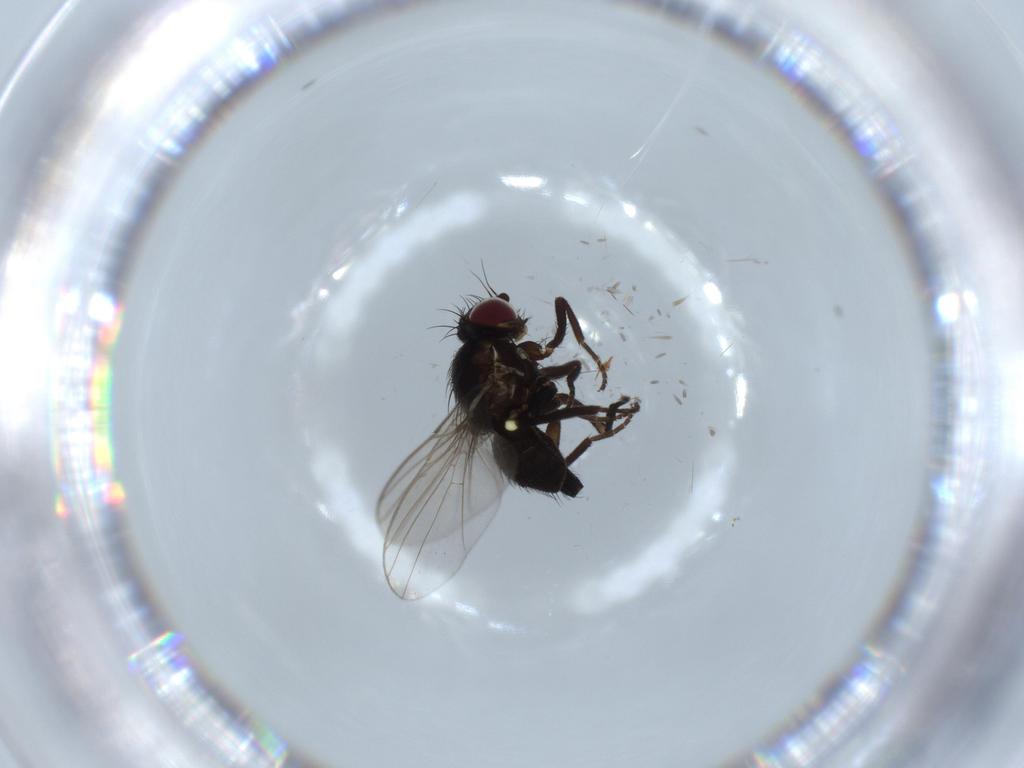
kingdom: Animalia
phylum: Arthropoda
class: Insecta
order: Diptera
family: Agromyzidae
